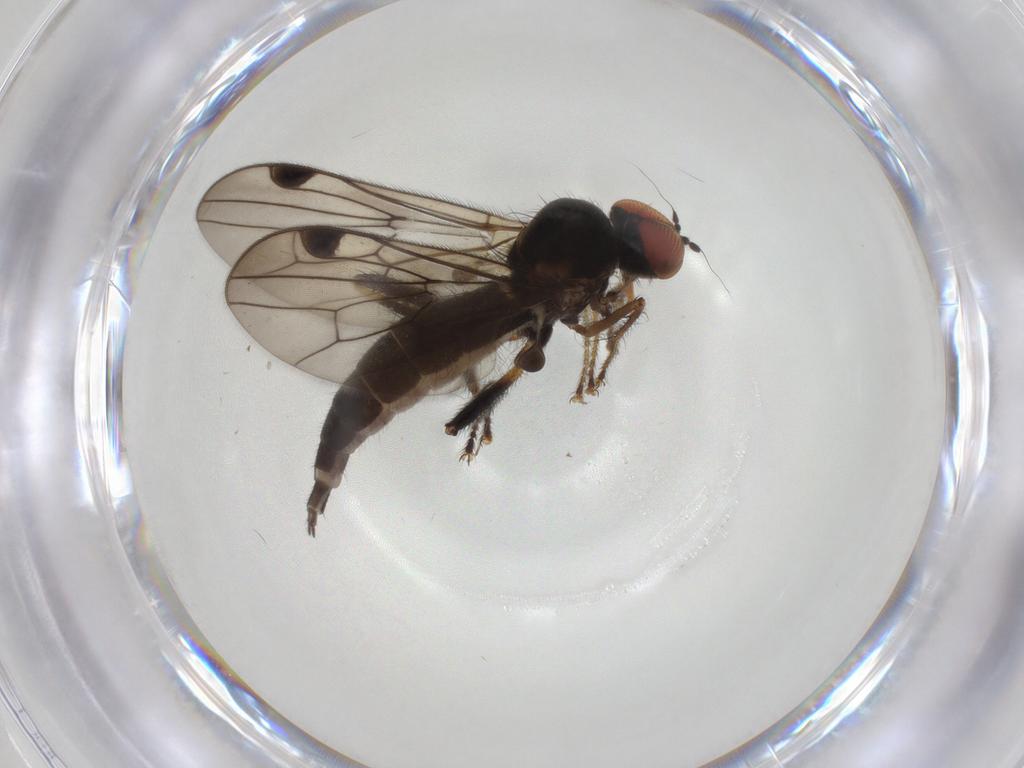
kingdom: Animalia
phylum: Arthropoda
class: Insecta
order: Diptera
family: Hybotidae
